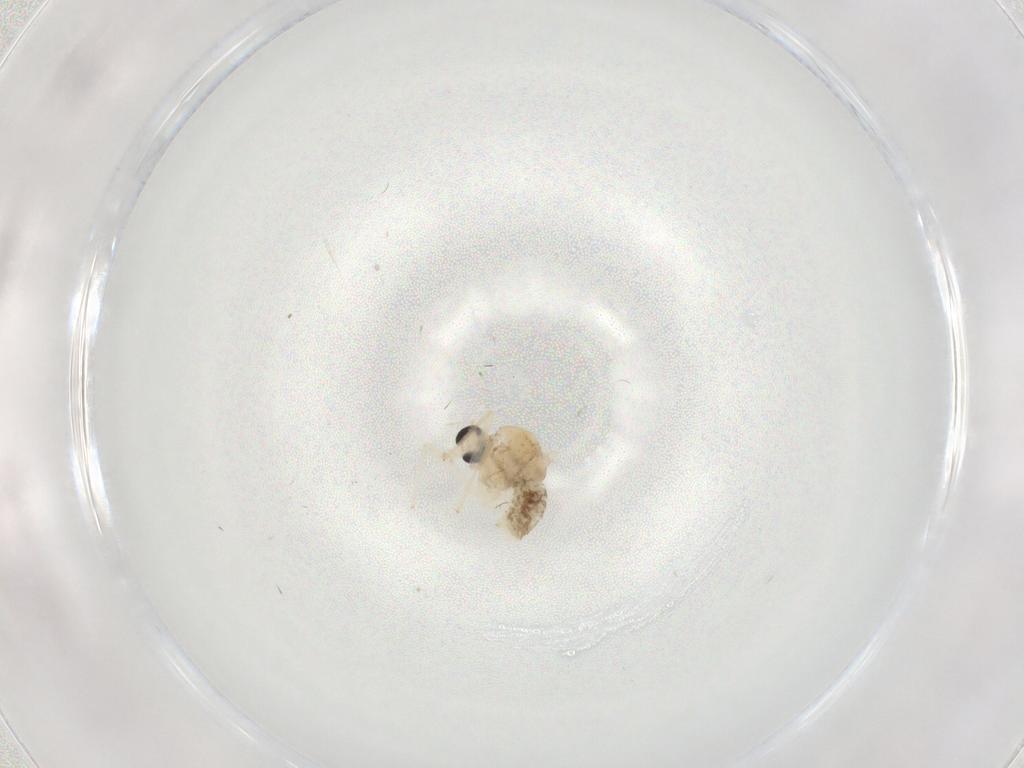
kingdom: Animalia
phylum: Arthropoda
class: Insecta
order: Diptera
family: Chironomidae
